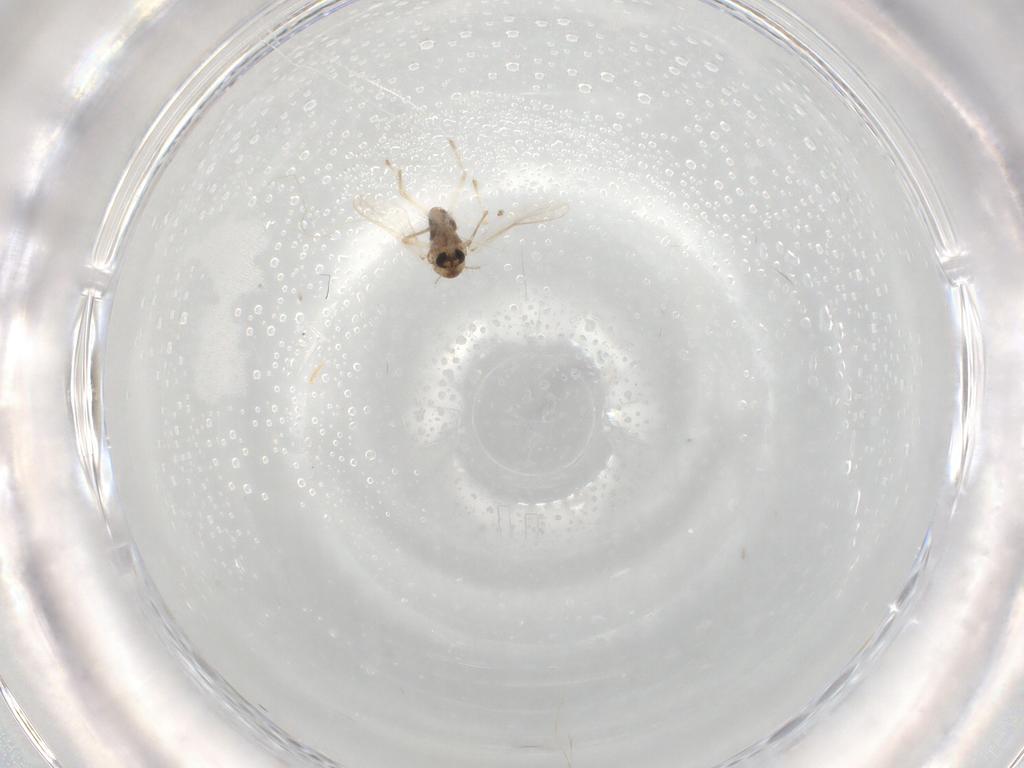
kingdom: Animalia
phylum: Arthropoda
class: Insecta
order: Diptera
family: Chironomidae
